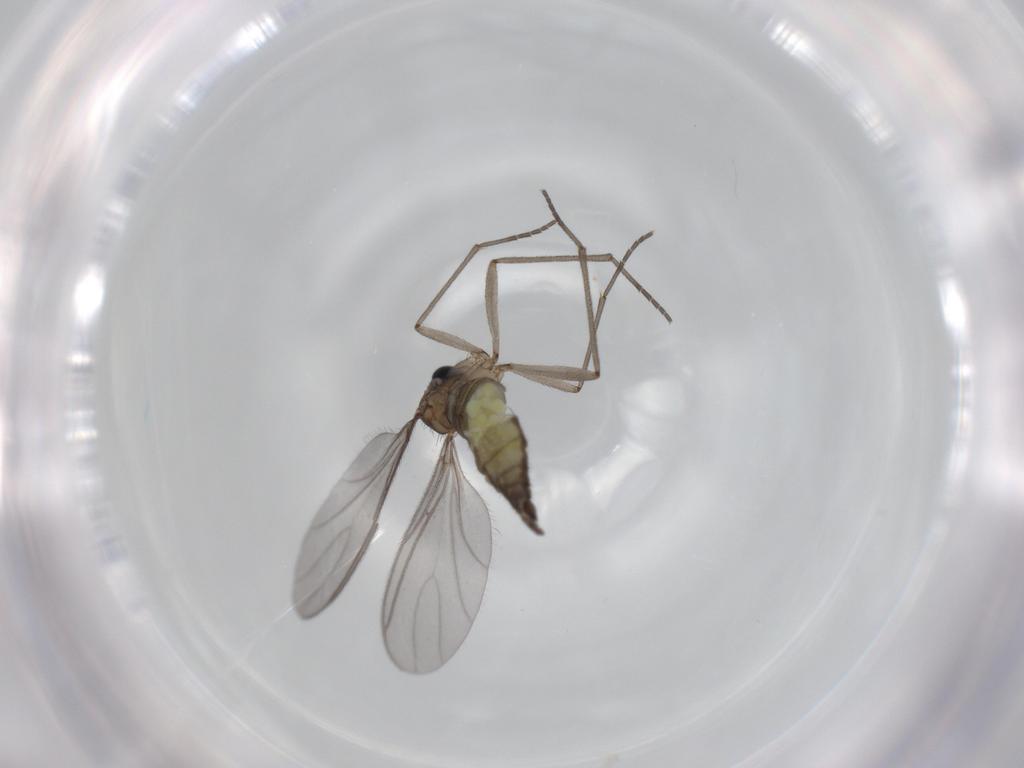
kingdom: Animalia
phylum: Arthropoda
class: Insecta
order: Diptera
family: Sciaridae
